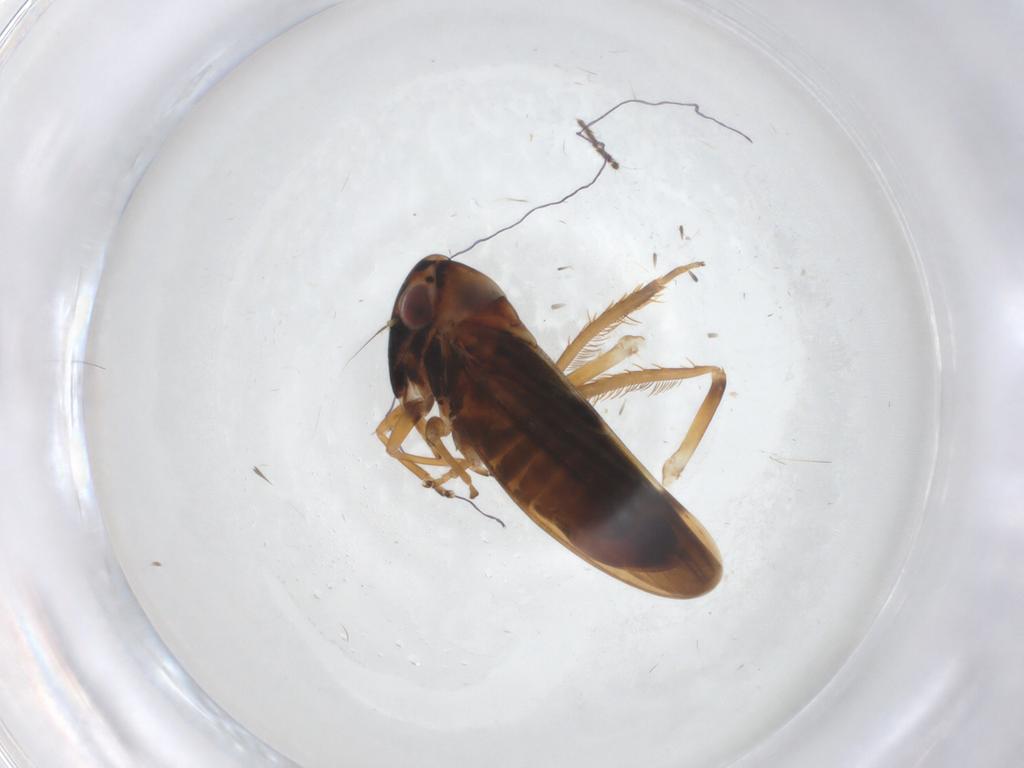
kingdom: Animalia
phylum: Arthropoda
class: Insecta
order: Hemiptera
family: Cicadellidae
